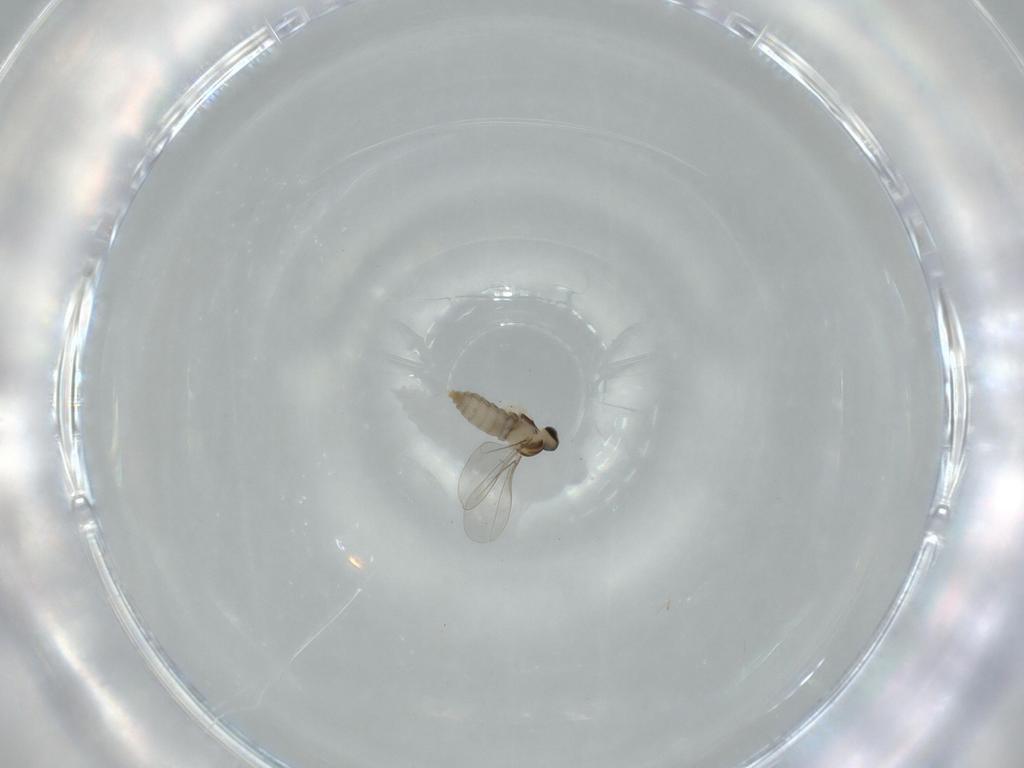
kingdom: Animalia
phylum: Arthropoda
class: Insecta
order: Diptera
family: Cecidomyiidae
